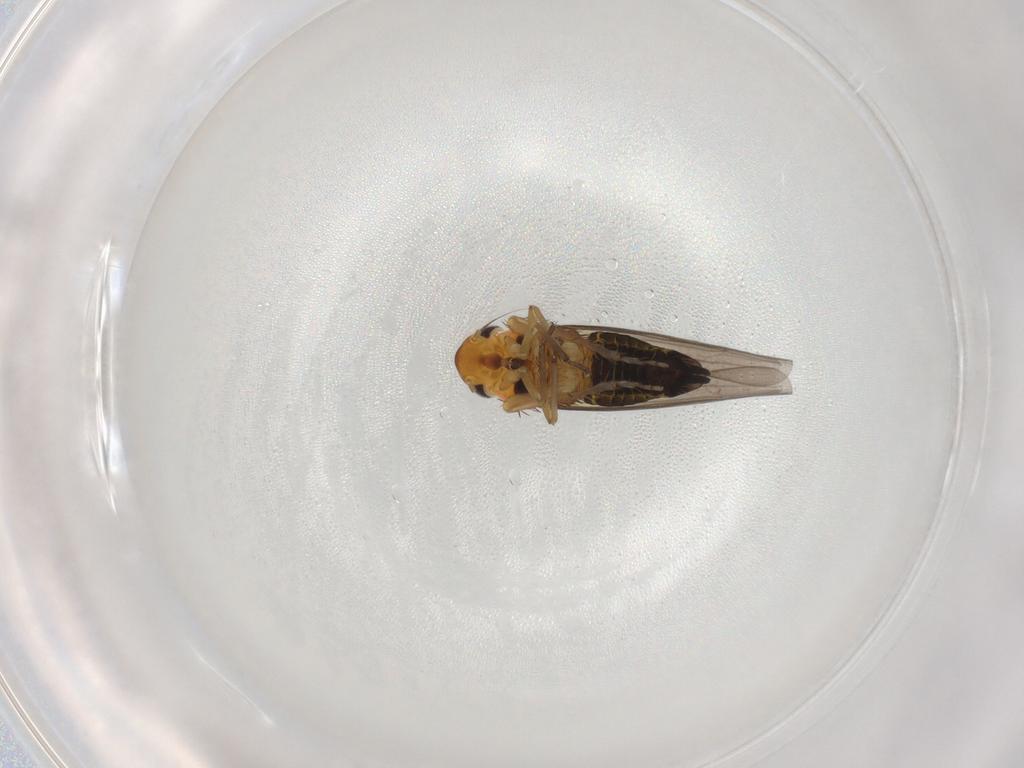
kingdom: Animalia
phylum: Arthropoda
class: Insecta
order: Hemiptera
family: Cicadellidae
